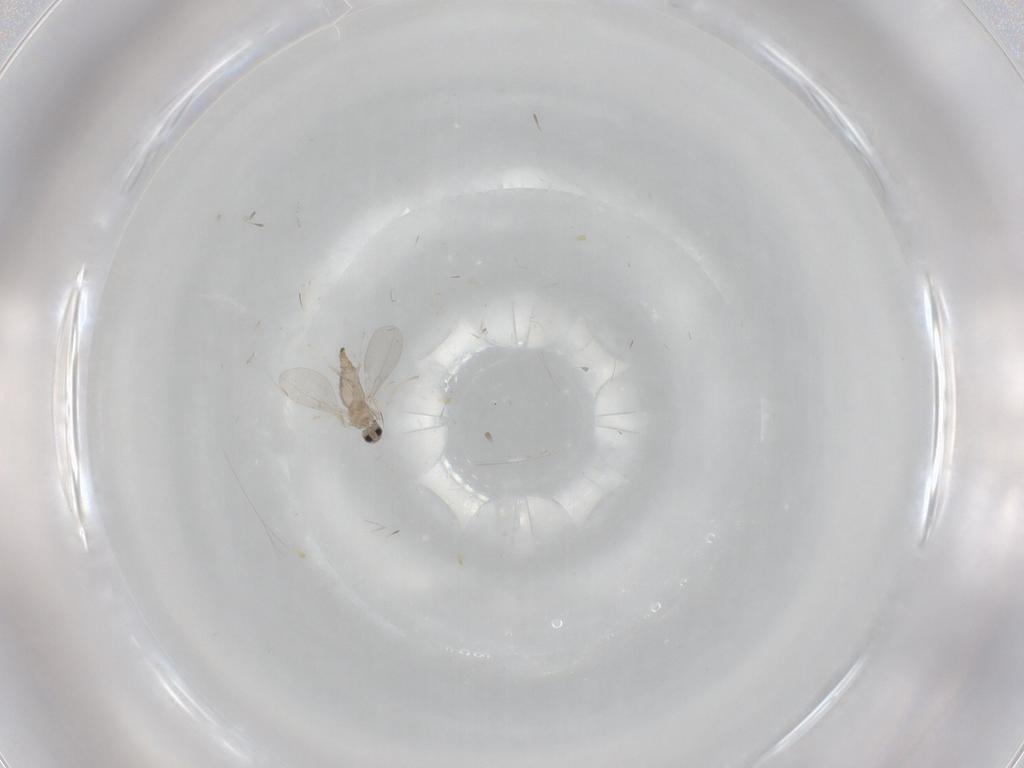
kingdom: Animalia
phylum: Arthropoda
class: Insecta
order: Diptera
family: Cecidomyiidae
